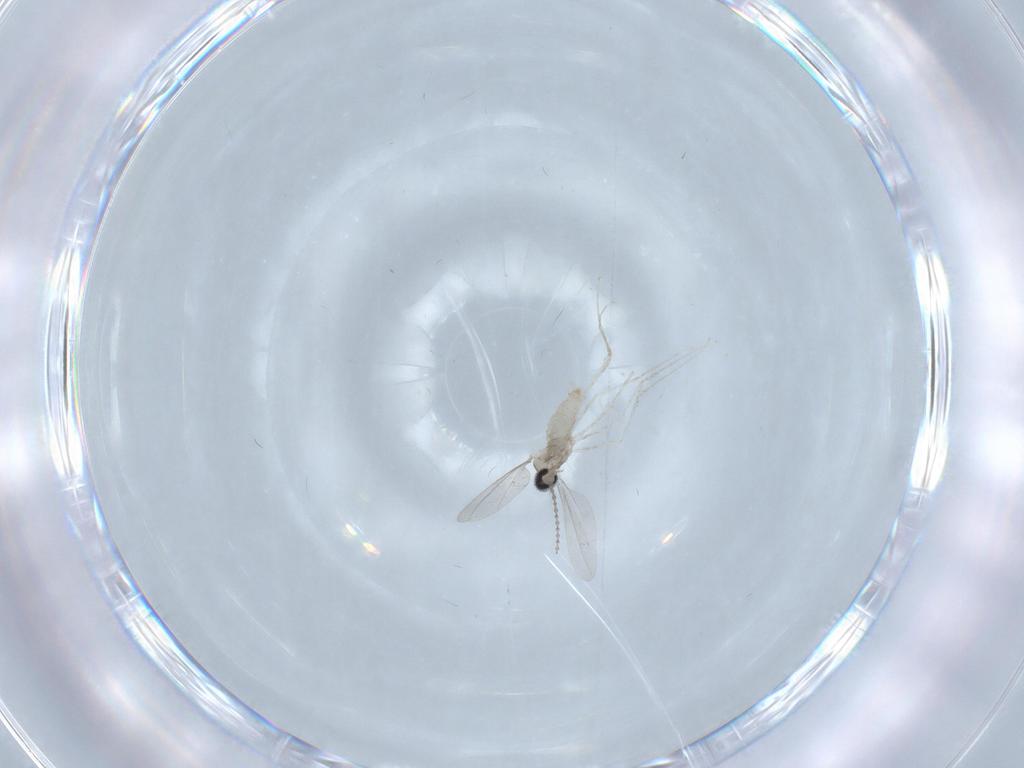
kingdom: Animalia
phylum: Arthropoda
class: Insecta
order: Diptera
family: Cecidomyiidae
